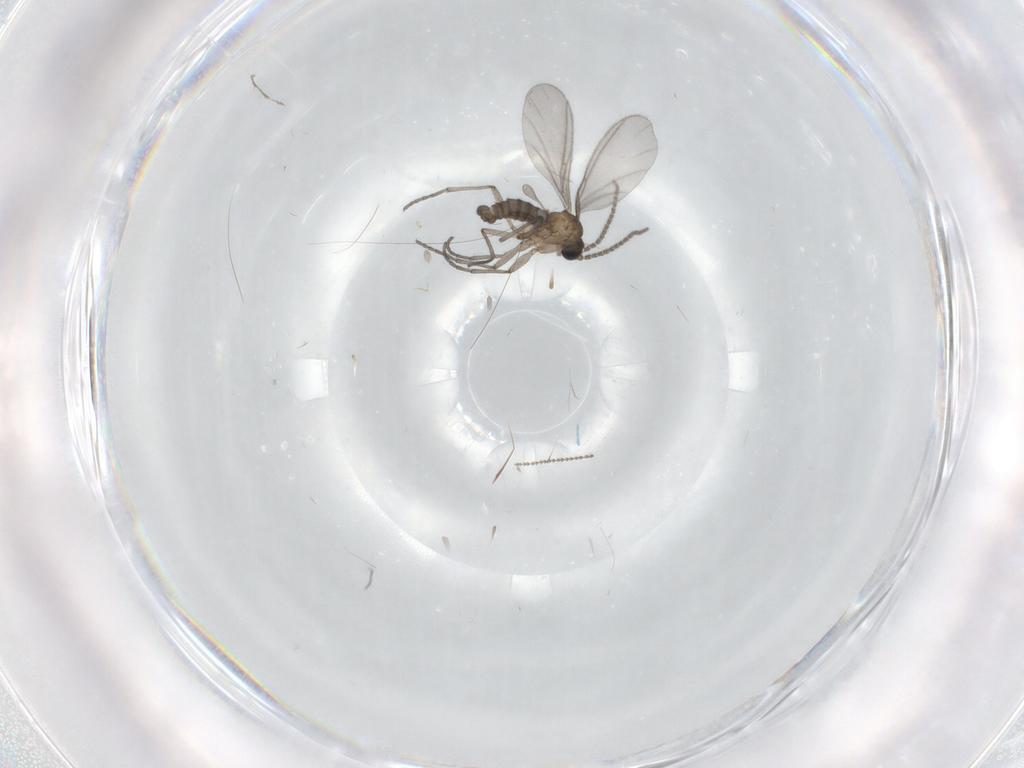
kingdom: Animalia
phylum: Arthropoda
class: Insecta
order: Diptera
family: Sciaridae
